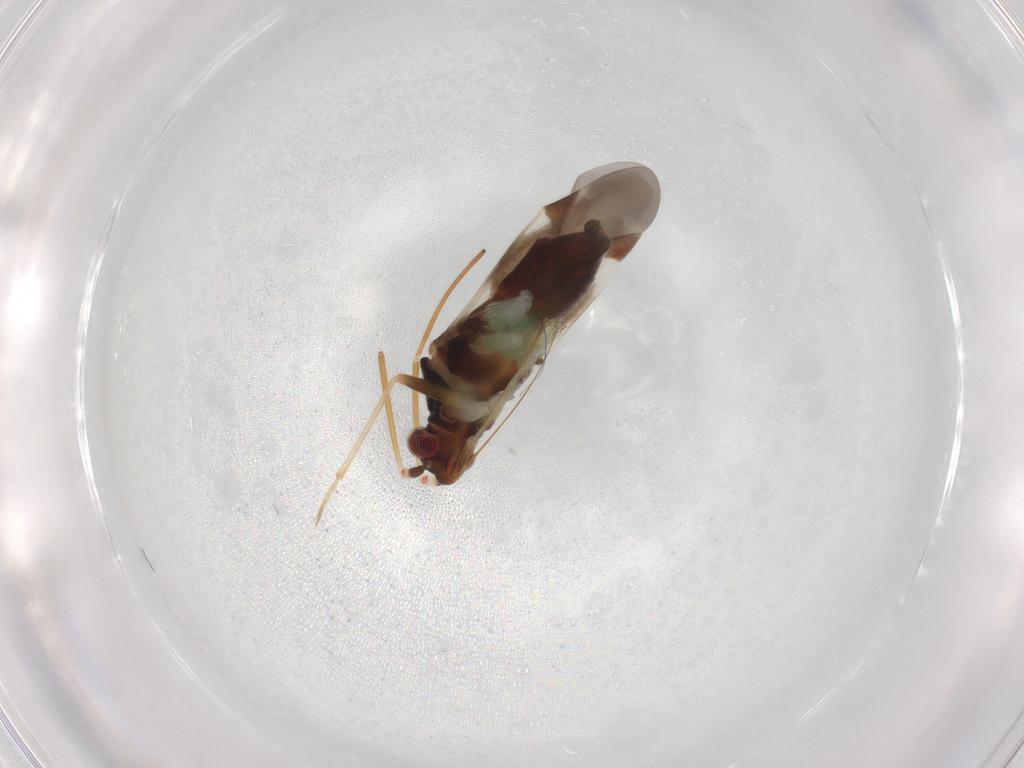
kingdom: Animalia
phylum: Arthropoda
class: Insecta
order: Hemiptera
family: Miridae
